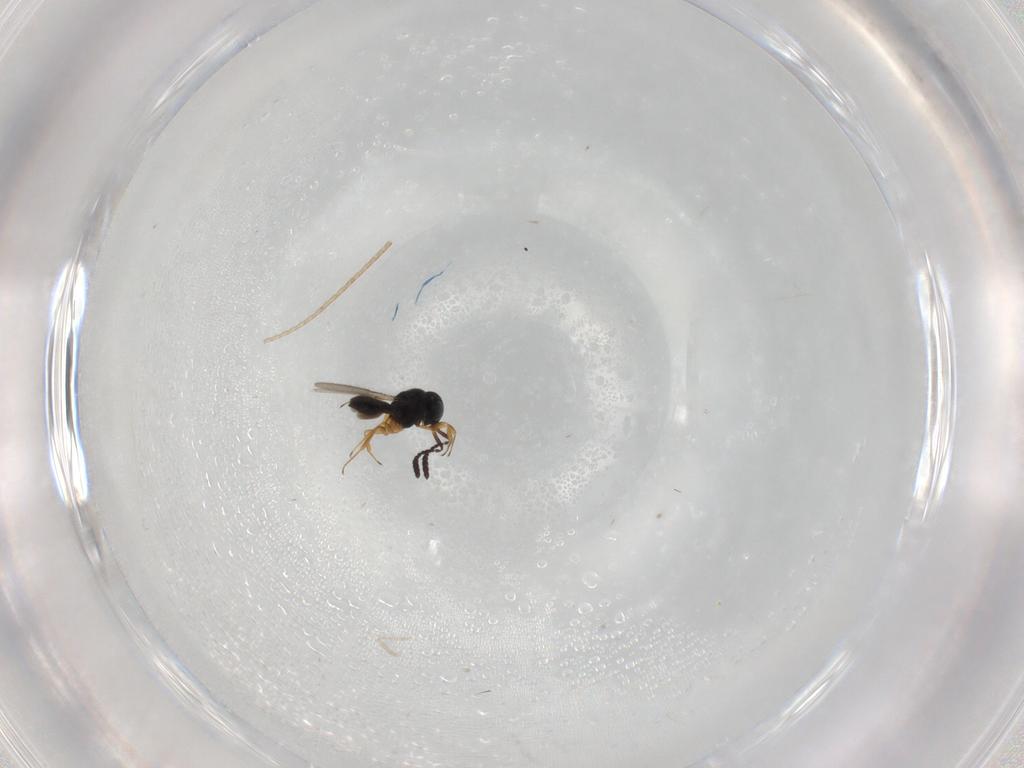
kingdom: Animalia
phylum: Arthropoda
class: Insecta
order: Hymenoptera
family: Scelionidae
